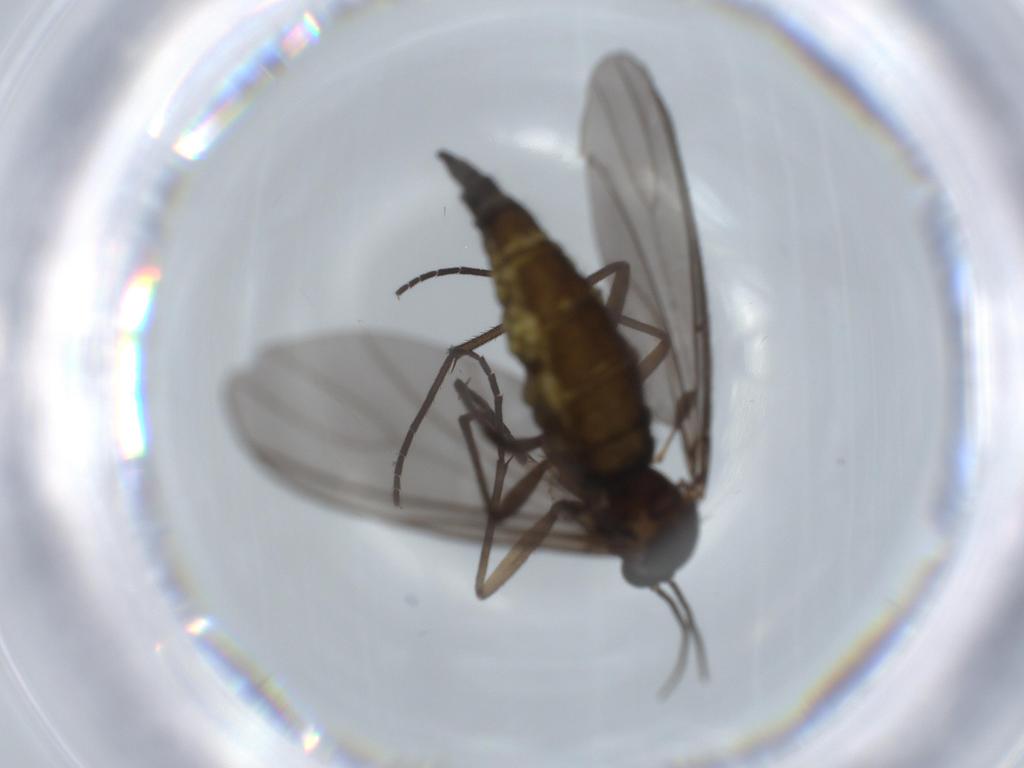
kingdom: Animalia
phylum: Arthropoda
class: Insecta
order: Diptera
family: Sciaridae
